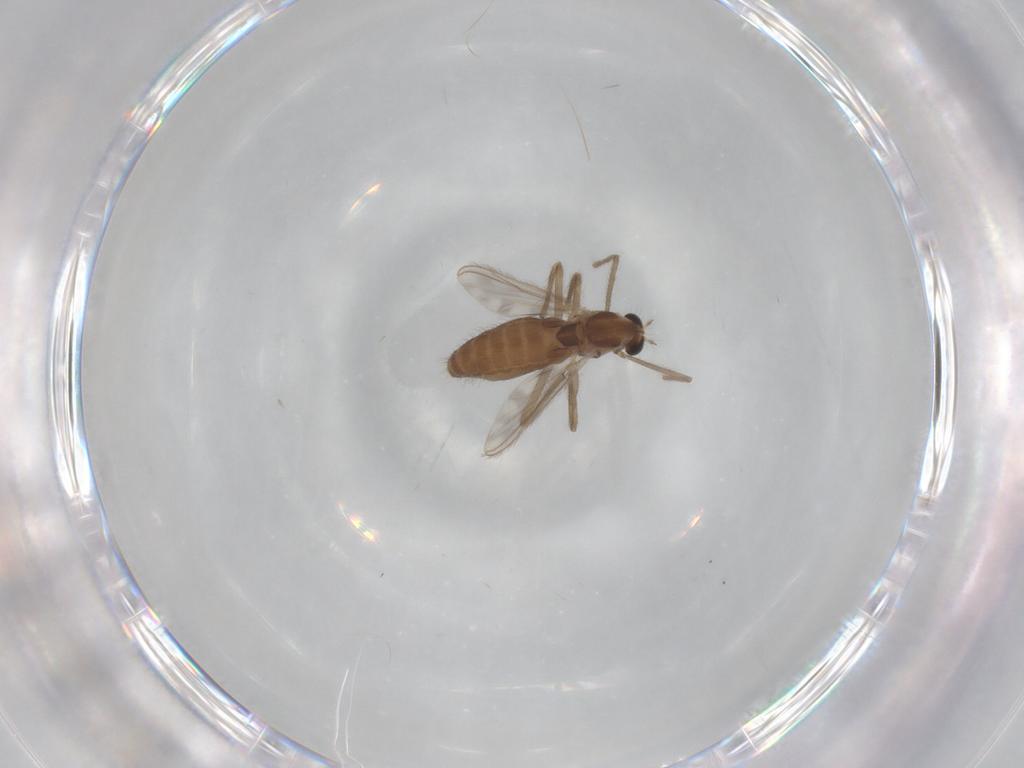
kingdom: Animalia
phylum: Arthropoda
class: Insecta
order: Diptera
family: Chironomidae
